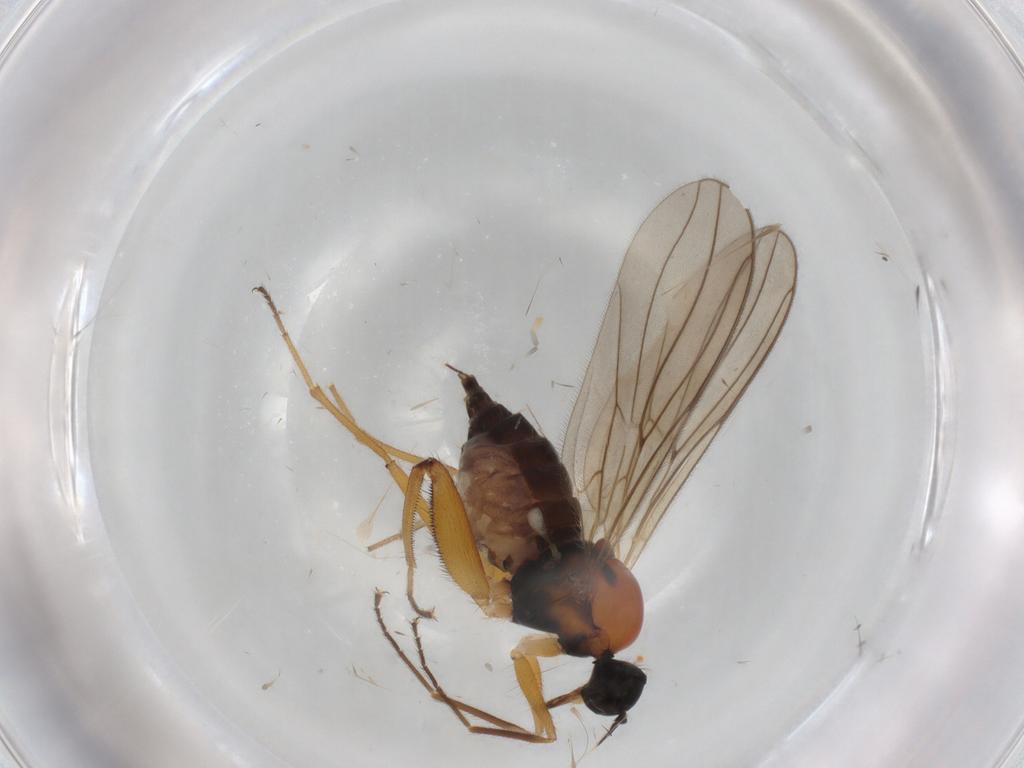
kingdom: Animalia
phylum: Arthropoda
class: Insecta
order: Diptera
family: Hybotidae
